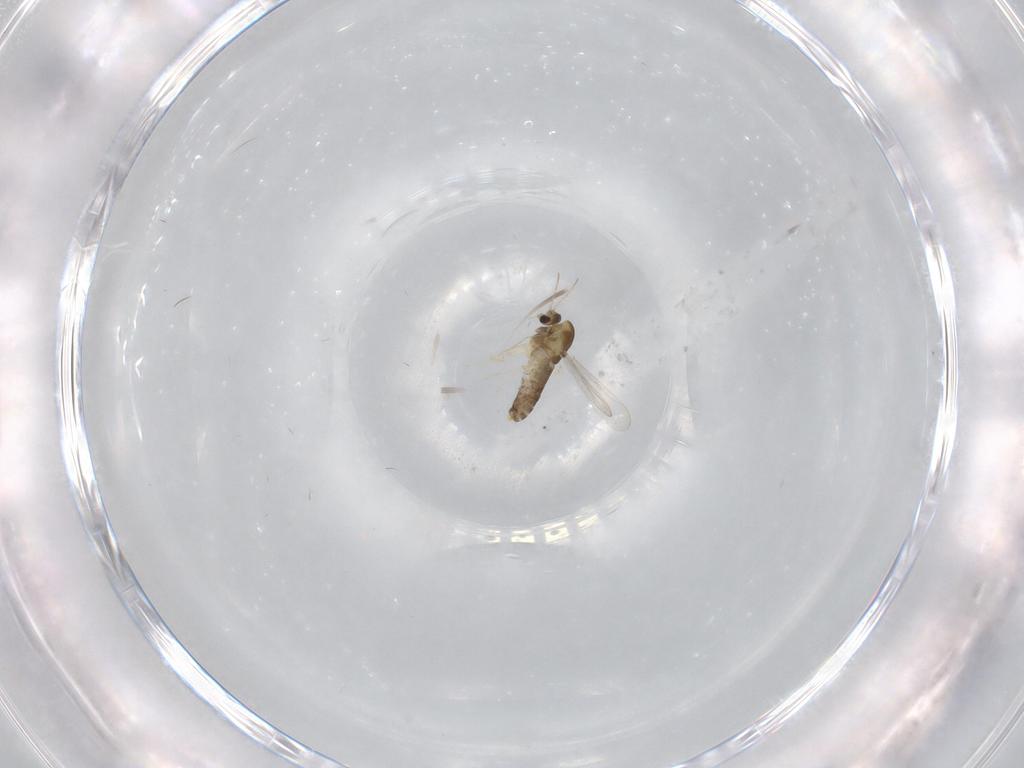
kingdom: Animalia
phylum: Arthropoda
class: Insecta
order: Diptera
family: Chironomidae
